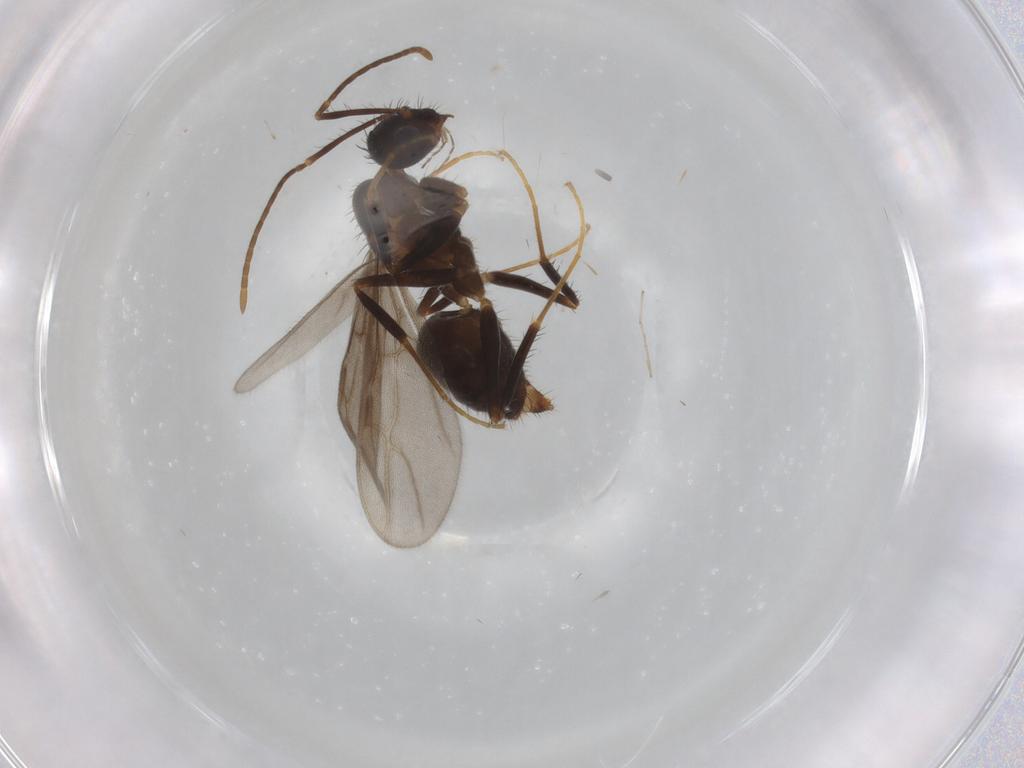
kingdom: Animalia
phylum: Arthropoda
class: Insecta
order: Hymenoptera
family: Formicidae
